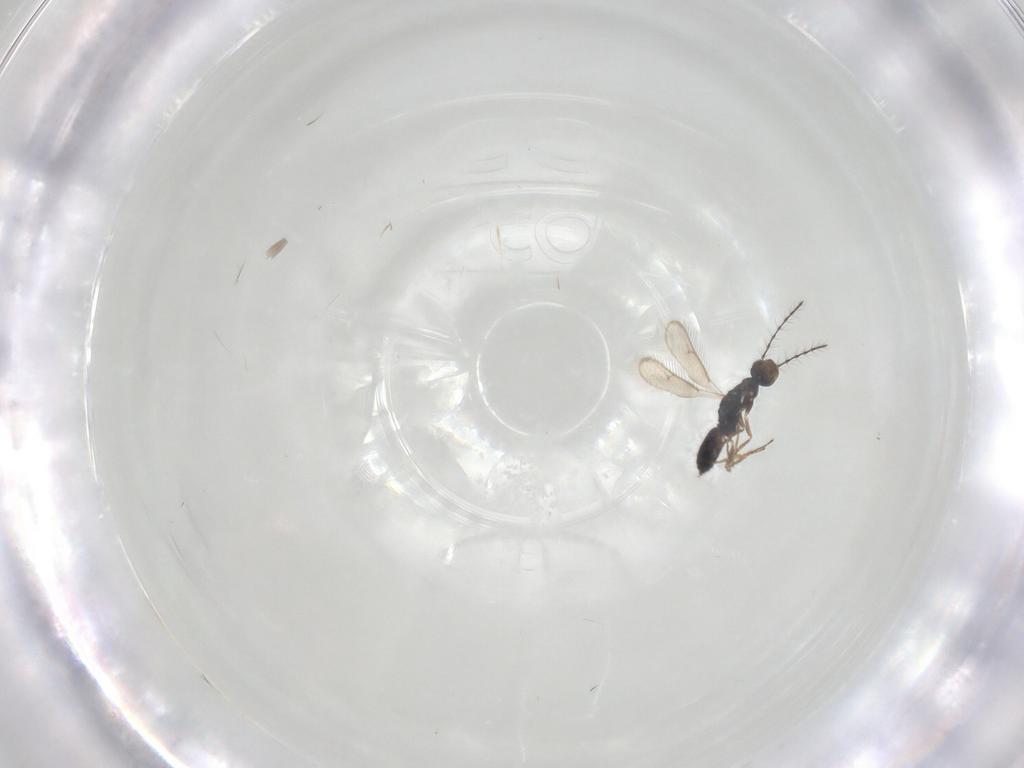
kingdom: Animalia
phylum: Arthropoda
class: Insecta
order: Hymenoptera
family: Pteromalidae
